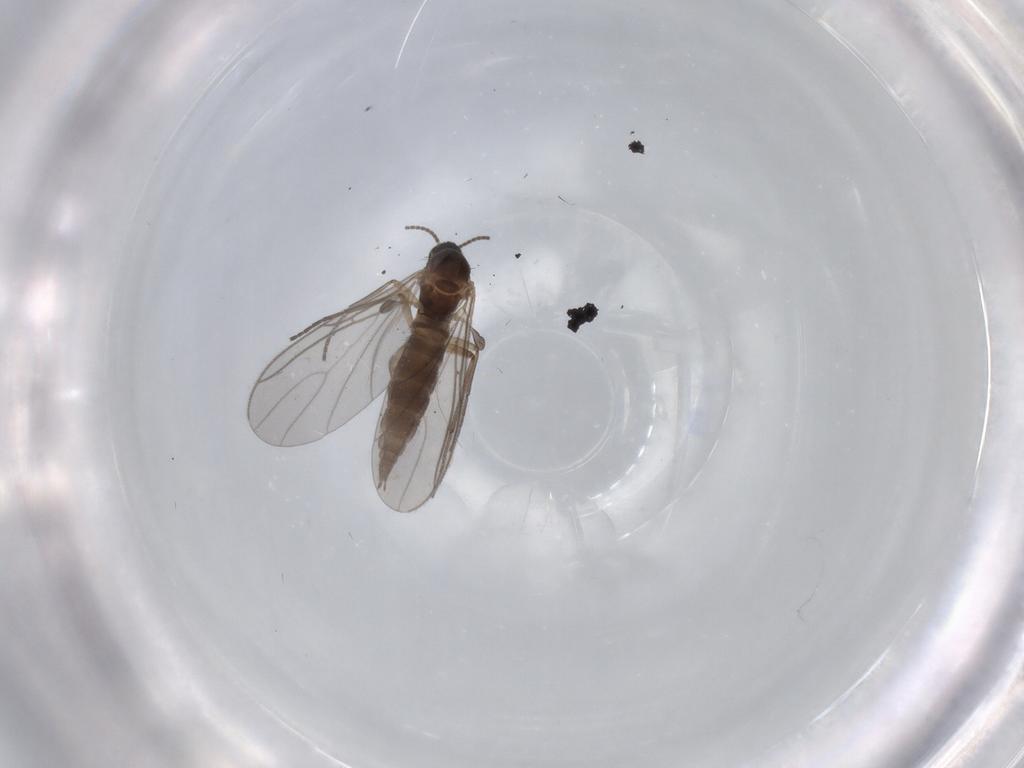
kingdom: Animalia
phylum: Arthropoda
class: Insecta
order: Diptera
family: Sciaridae
